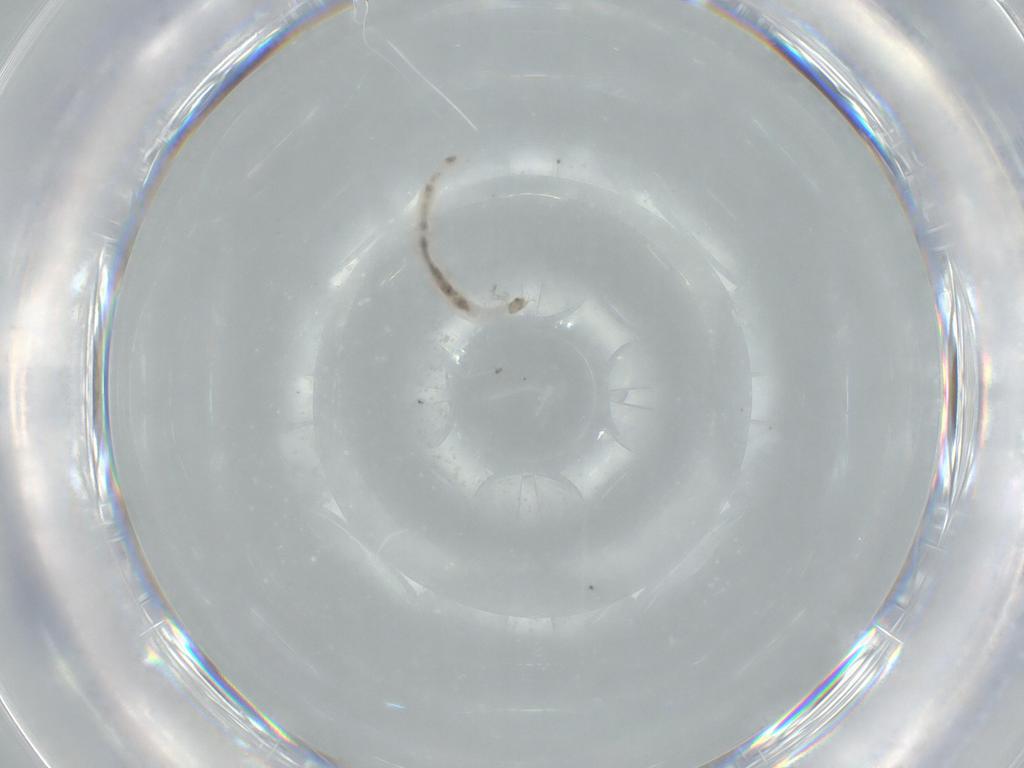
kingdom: Animalia
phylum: Arthropoda
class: Insecta
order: Diptera
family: Chironomidae
